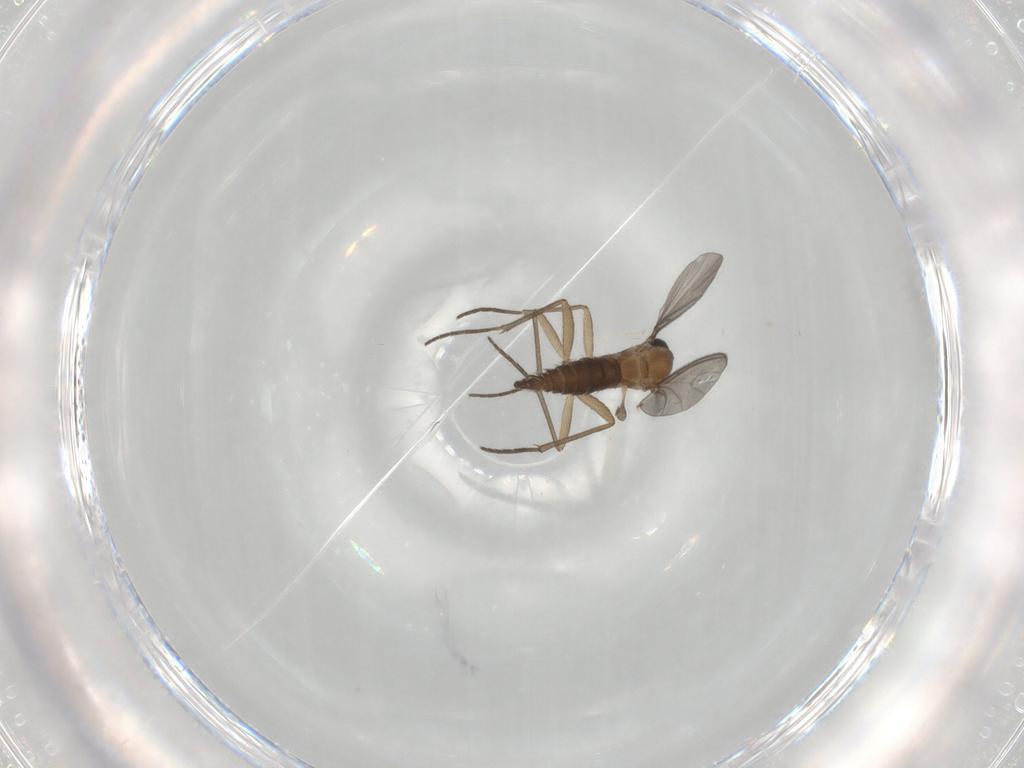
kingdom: Animalia
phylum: Arthropoda
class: Insecta
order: Diptera
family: Sciaridae
